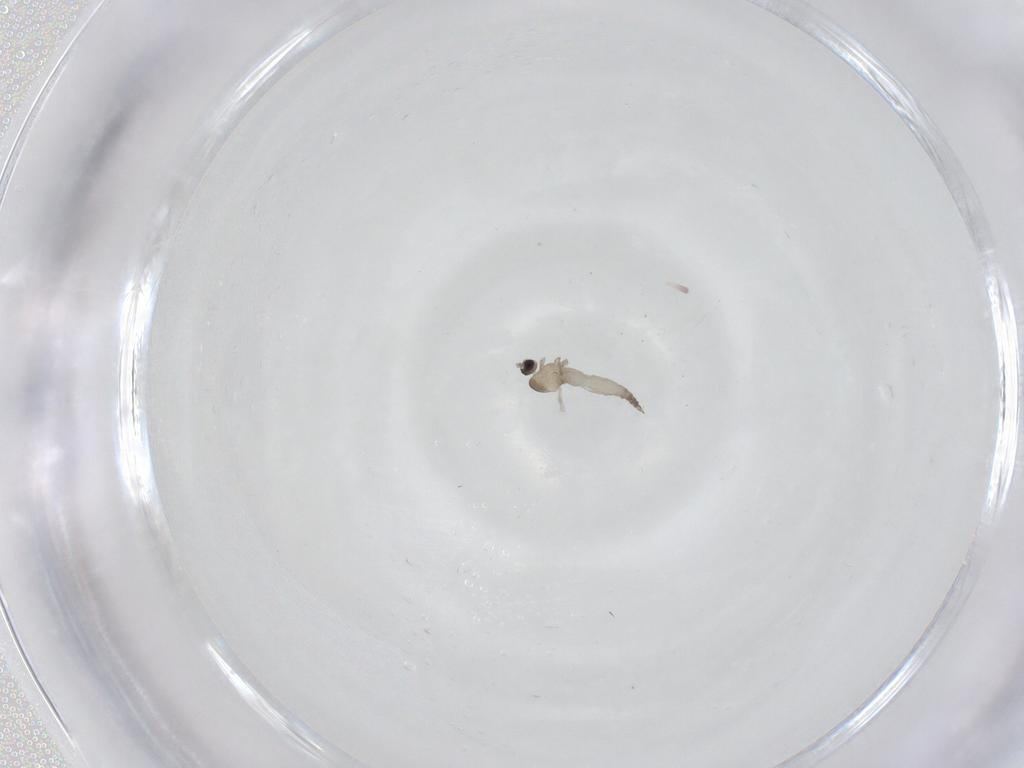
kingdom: Animalia
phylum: Arthropoda
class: Insecta
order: Diptera
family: Cecidomyiidae
